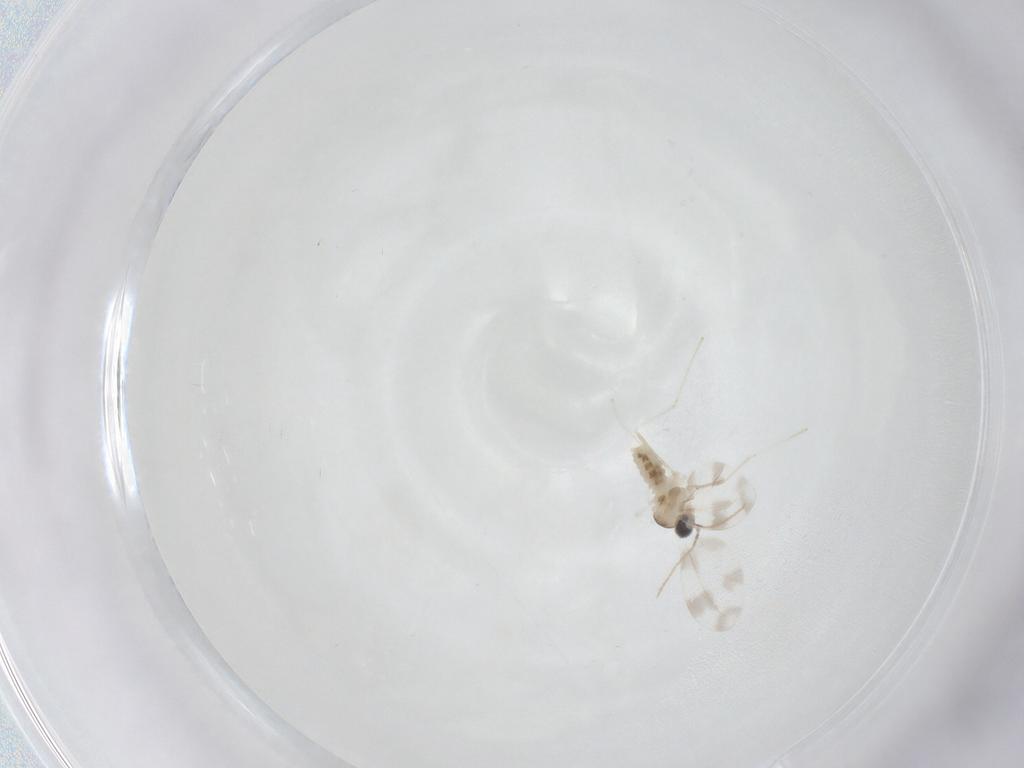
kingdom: Animalia
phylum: Arthropoda
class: Insecta
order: Diptera
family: Cecidomyiidae
